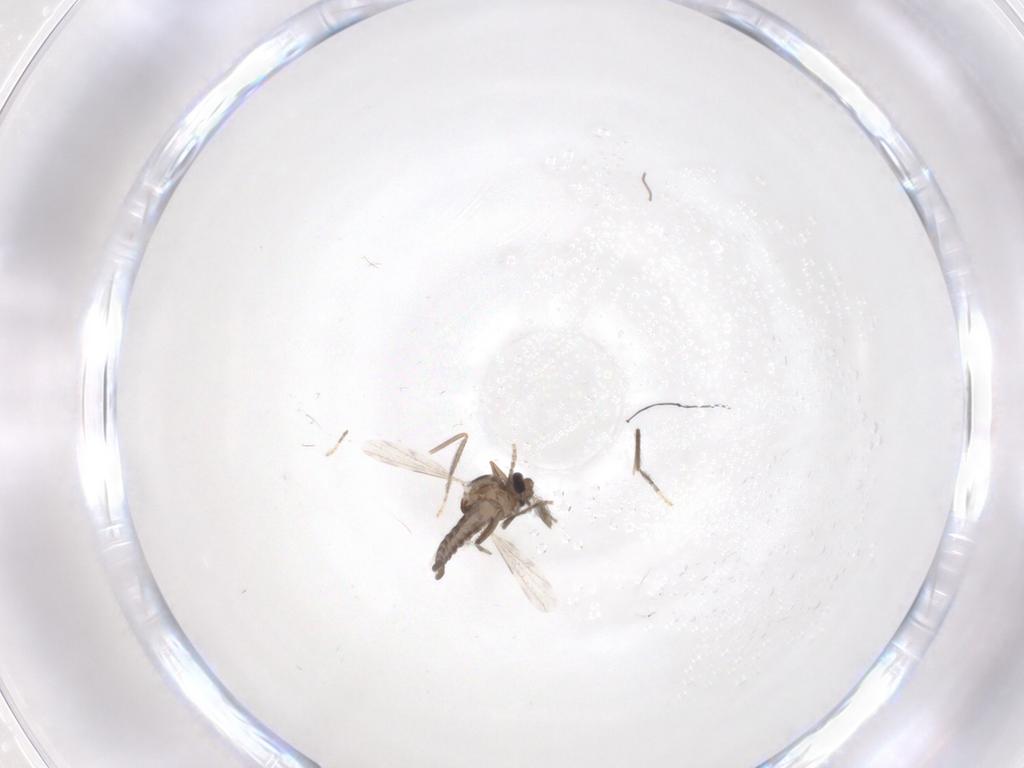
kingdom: Animalia
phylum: Arthropoda
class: Insecta
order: Diptera
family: Ceratopogonidae
